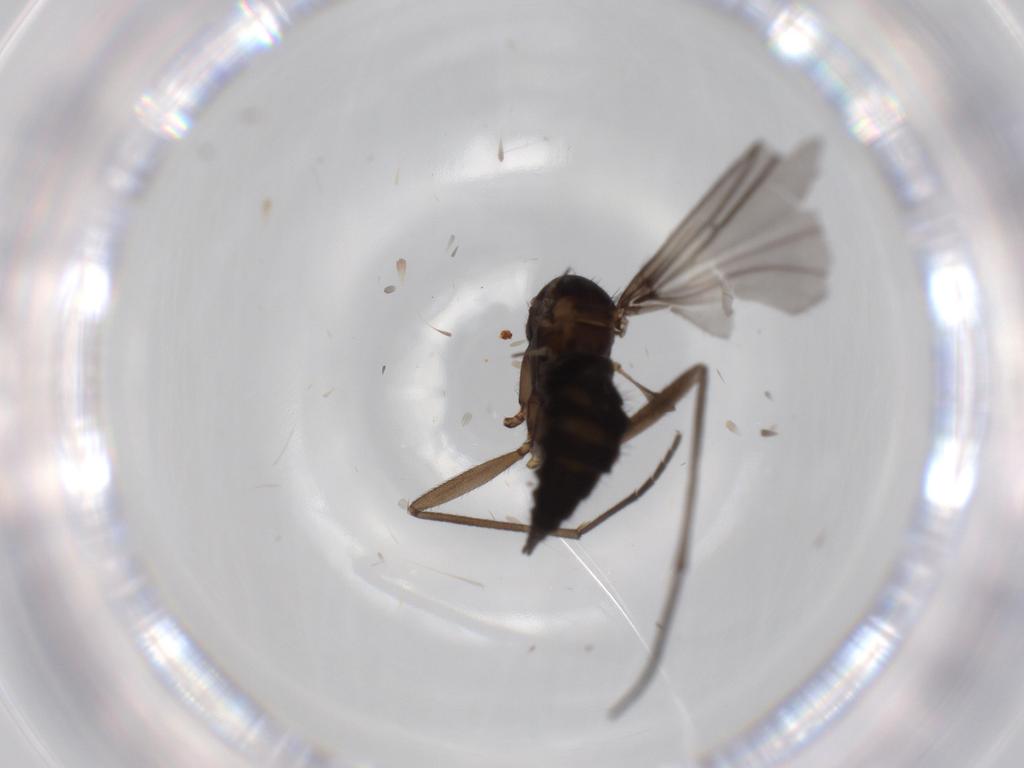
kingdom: Animalia
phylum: Arthropoda
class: Insecta
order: Diptera
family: Sciaridae
